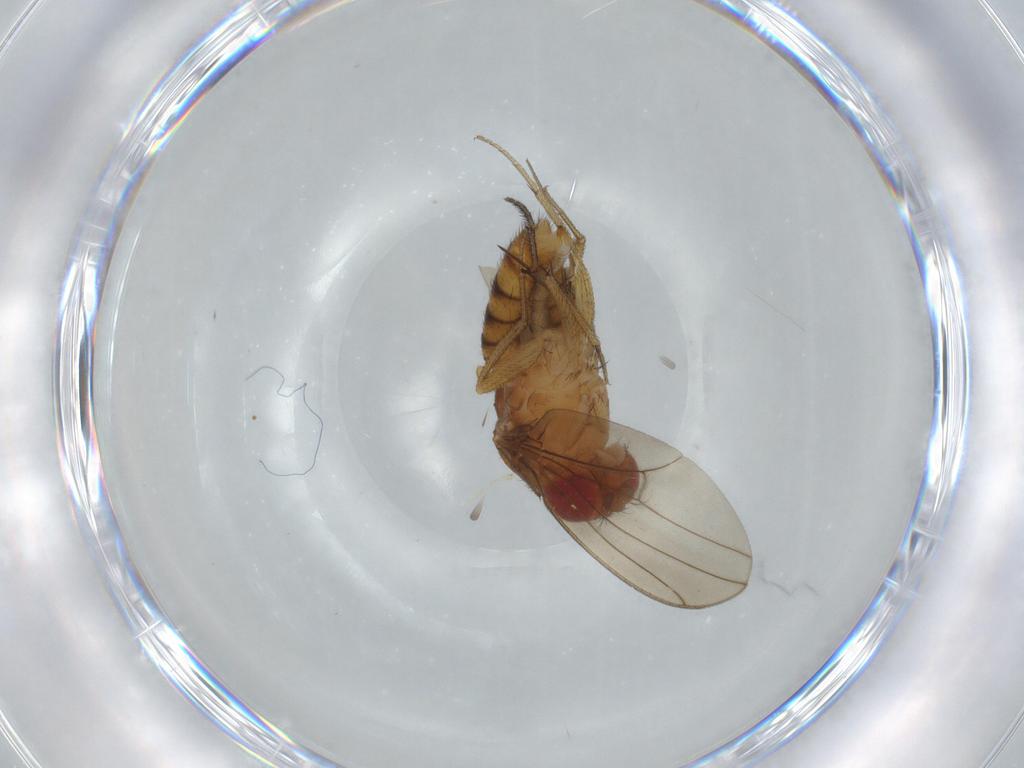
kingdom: Animalia
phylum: Arthropoda
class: Insecta
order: Diptera
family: Drosophilidae
